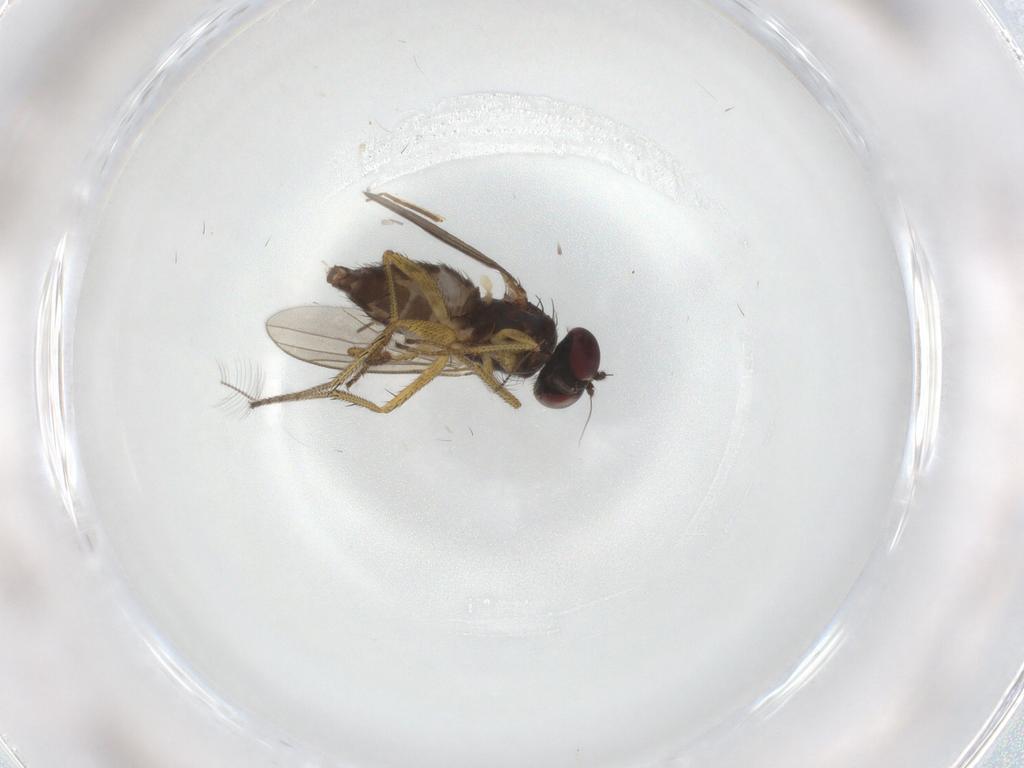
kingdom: Animalia
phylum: Arthropoda
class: Insecta
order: Diptera
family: Chironomidae
